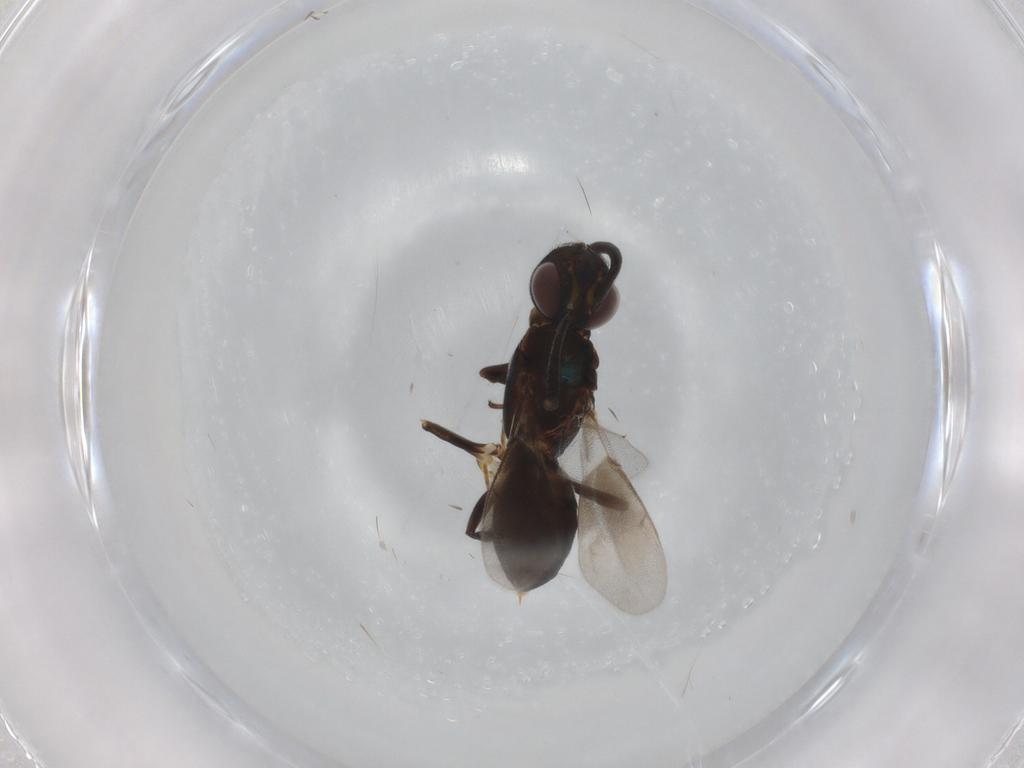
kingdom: Animalia
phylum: Arthropoda
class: Insecta
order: Hymenoptera
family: Eupelmidae
